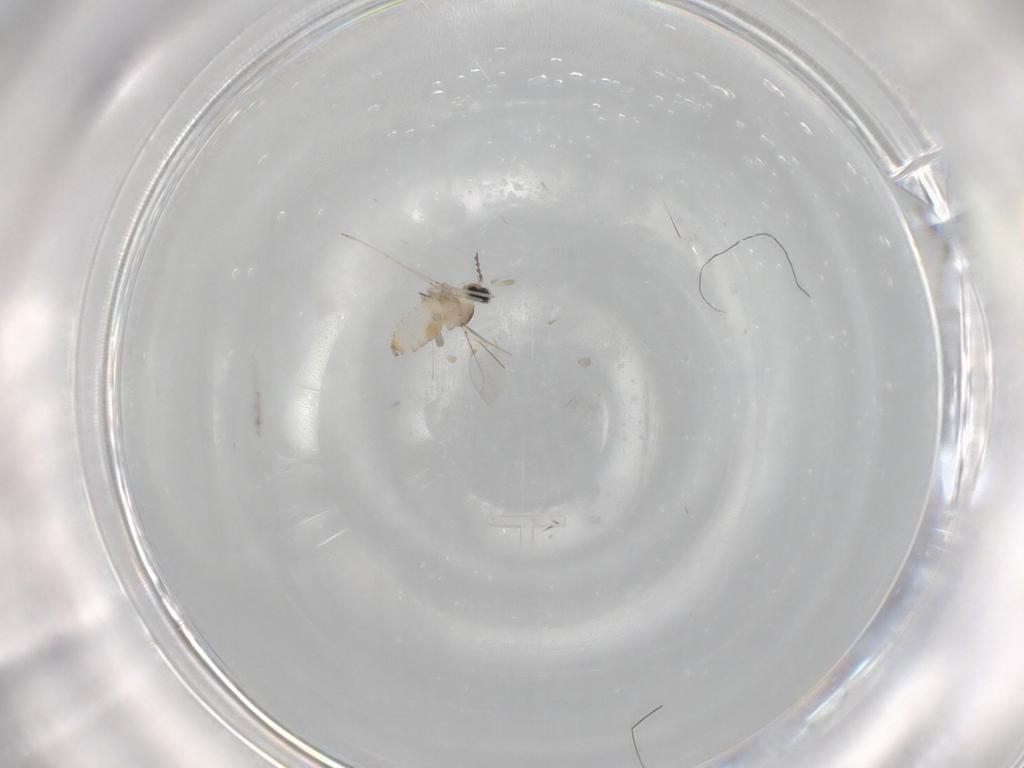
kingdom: Animalia
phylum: Arthropoda
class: Insecta
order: Diptera
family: Cecidomyiidae
